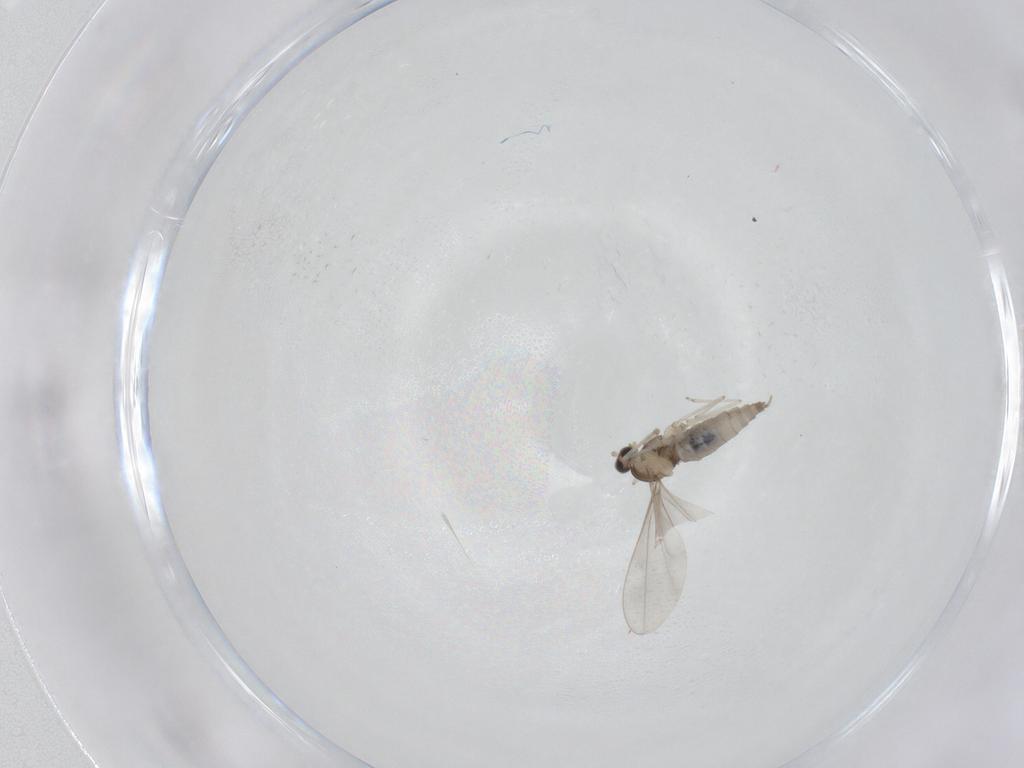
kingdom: Animalia
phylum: Arthropoda
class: Insecta
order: Diptera
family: Cecidomyiidae
